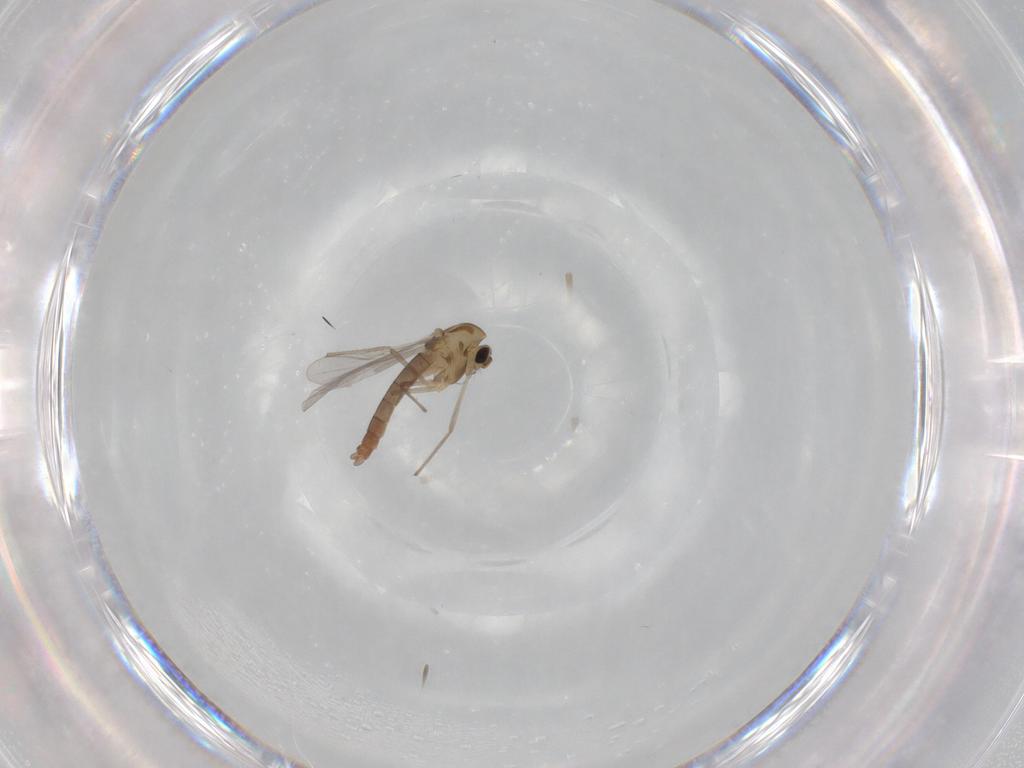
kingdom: Animalia
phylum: Arthropoda
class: Insecta
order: Diptera
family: Chironomidae
